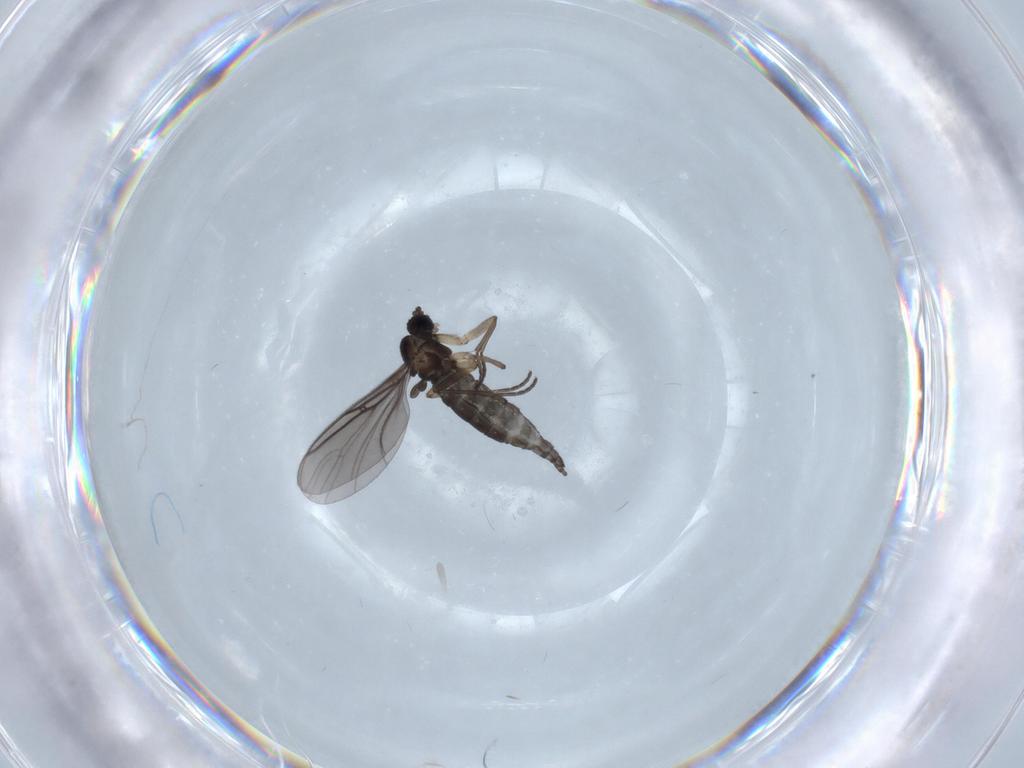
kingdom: Animalia
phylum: Arthropoda
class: Insecta
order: Diptera
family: Sciaridae
